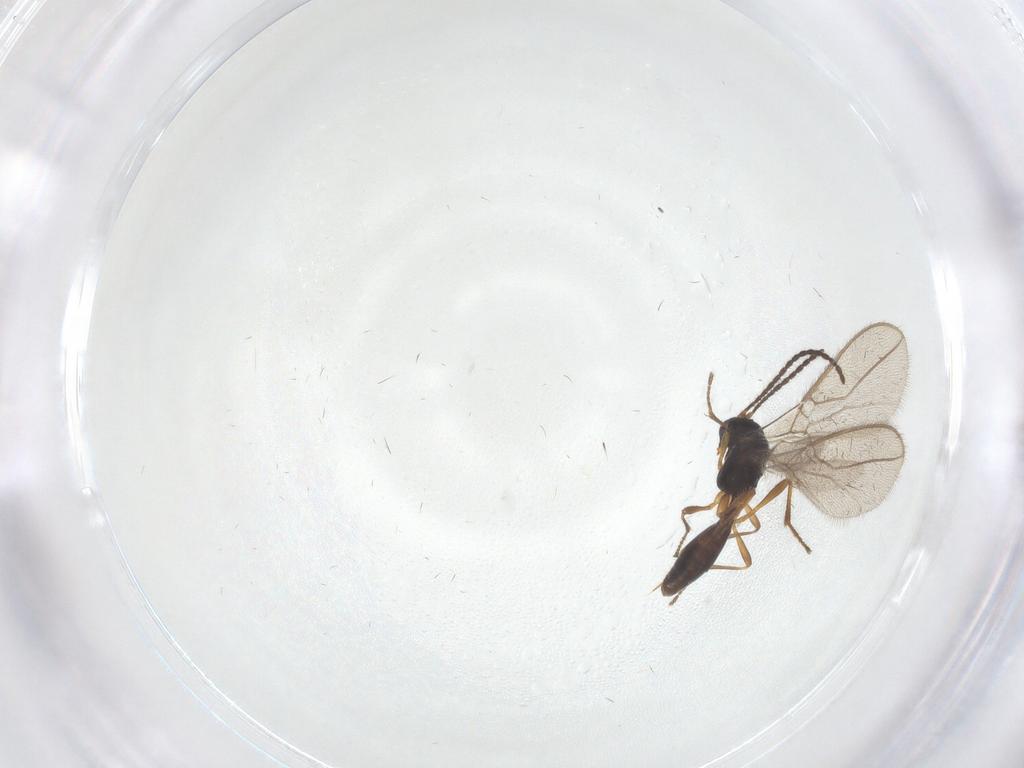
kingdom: Animalia
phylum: Arthropoda
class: Insecta
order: Hymenoptera
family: Braconidae
